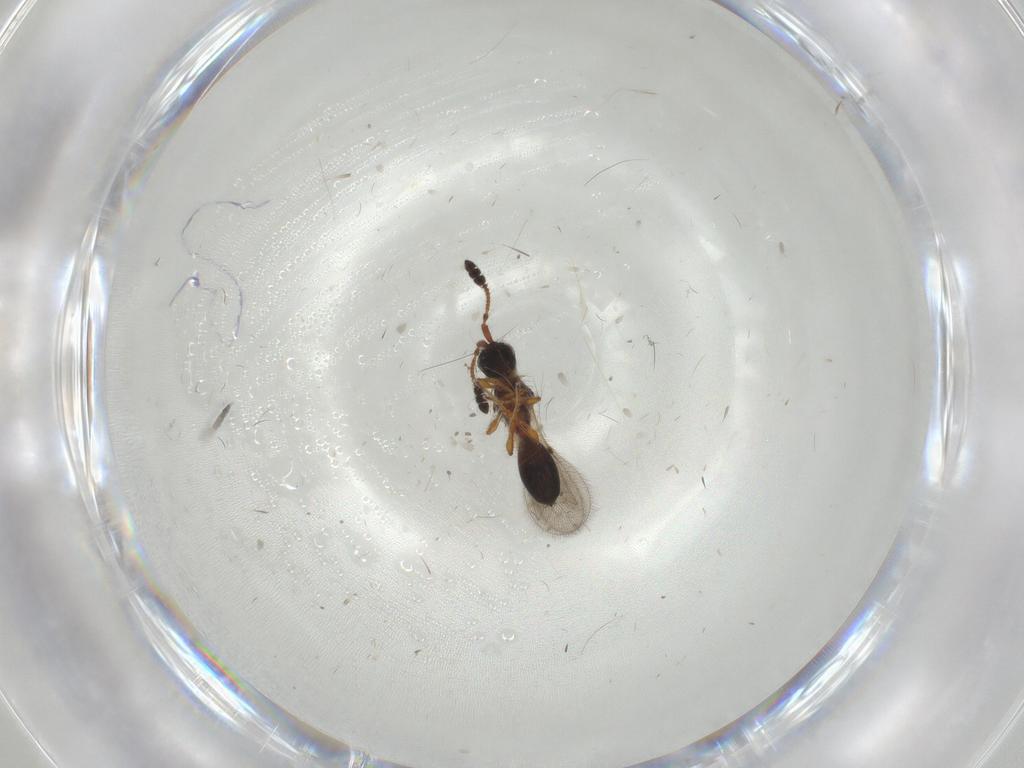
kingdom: Animalia
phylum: Arthropoda
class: Insecta
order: Hymenoptera
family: Diapriidae
